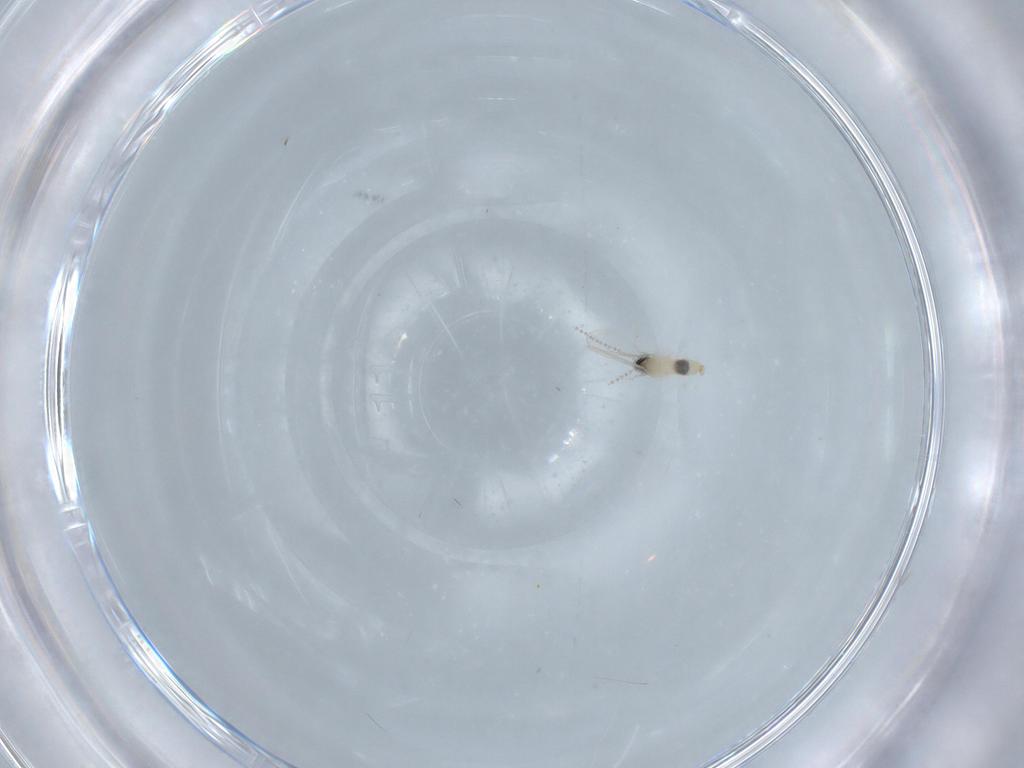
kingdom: Animalia
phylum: Arthropoda
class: Insecta
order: Diptera
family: Cecidomyiidae
